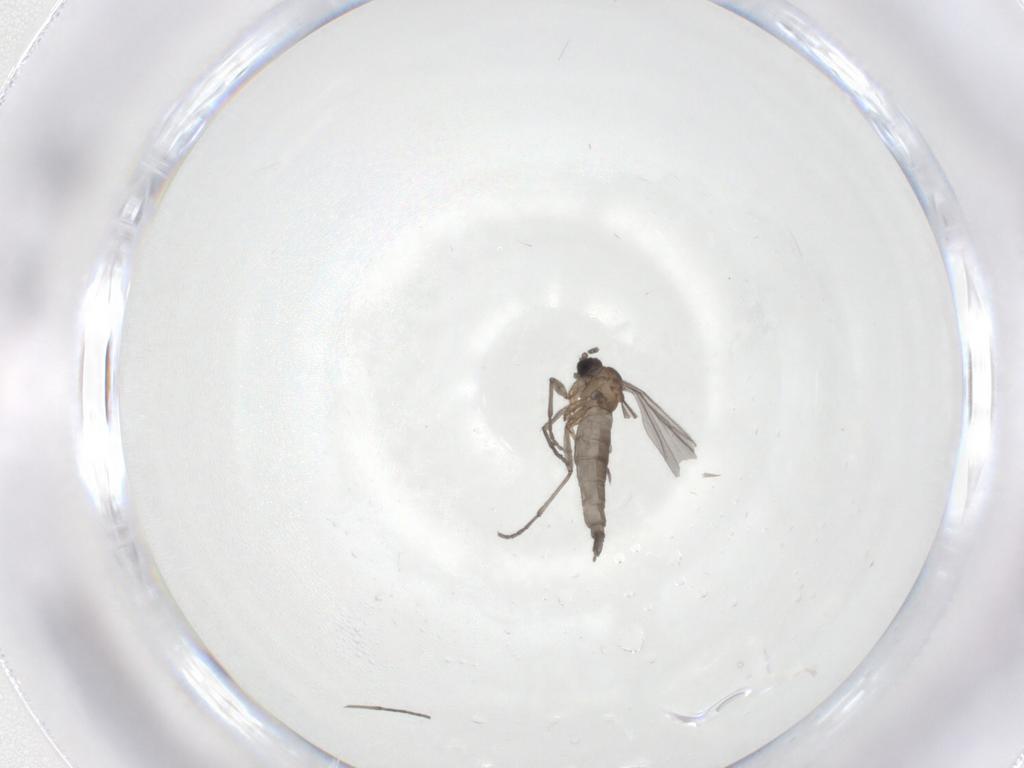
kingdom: Animalia
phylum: Arthropoda
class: Insecta
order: Diptera
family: Sciaridae
